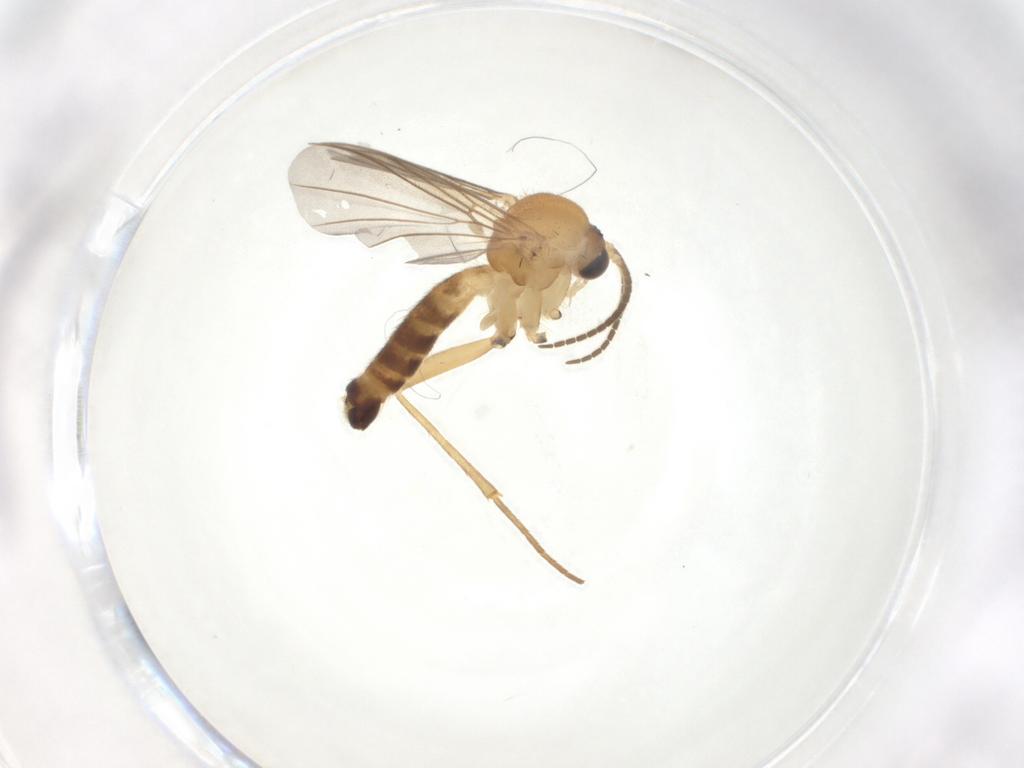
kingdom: Animalia
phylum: Arthropoda
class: Insecta
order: Diptera
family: Mycetophilidae
